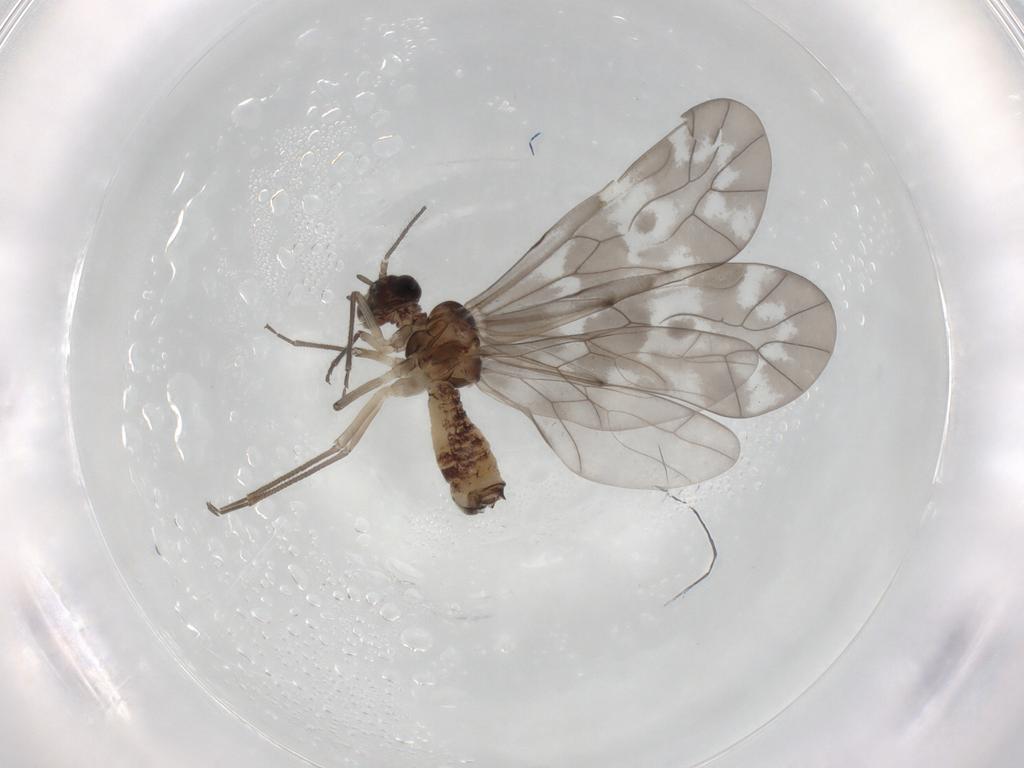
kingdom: Animalia
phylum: Arthropoda
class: Insecta
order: Psocodea
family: Peripsocidae
